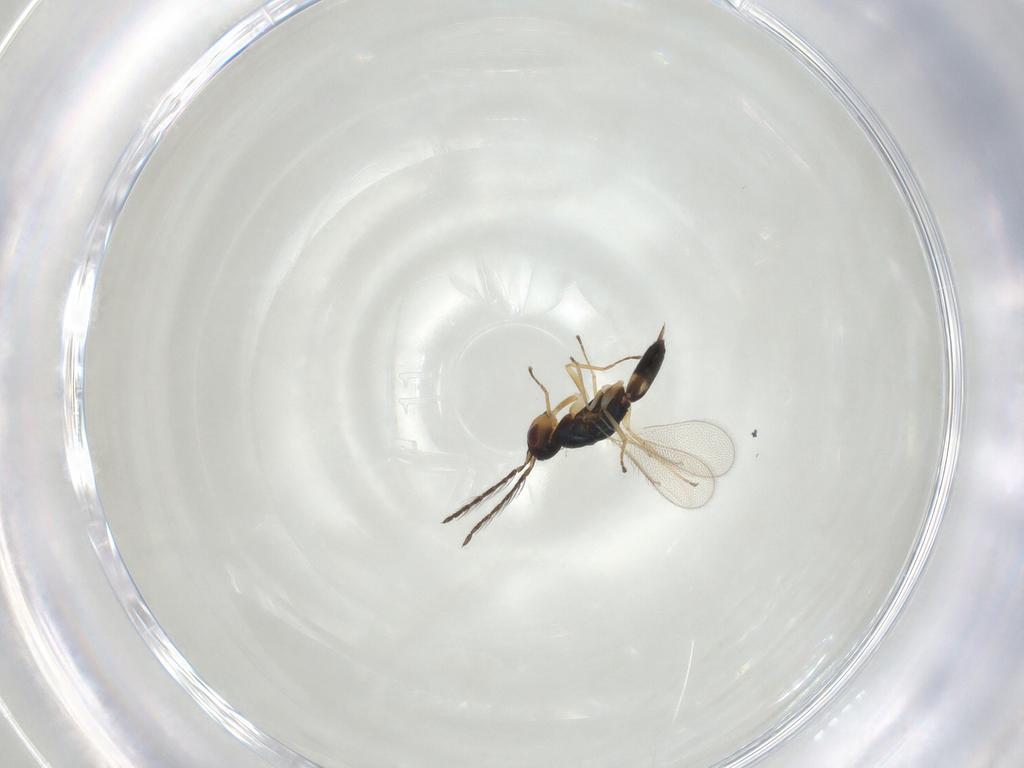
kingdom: Animalia
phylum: Arthropoda
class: Insecta
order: Hymenoptera
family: Eulophidae
